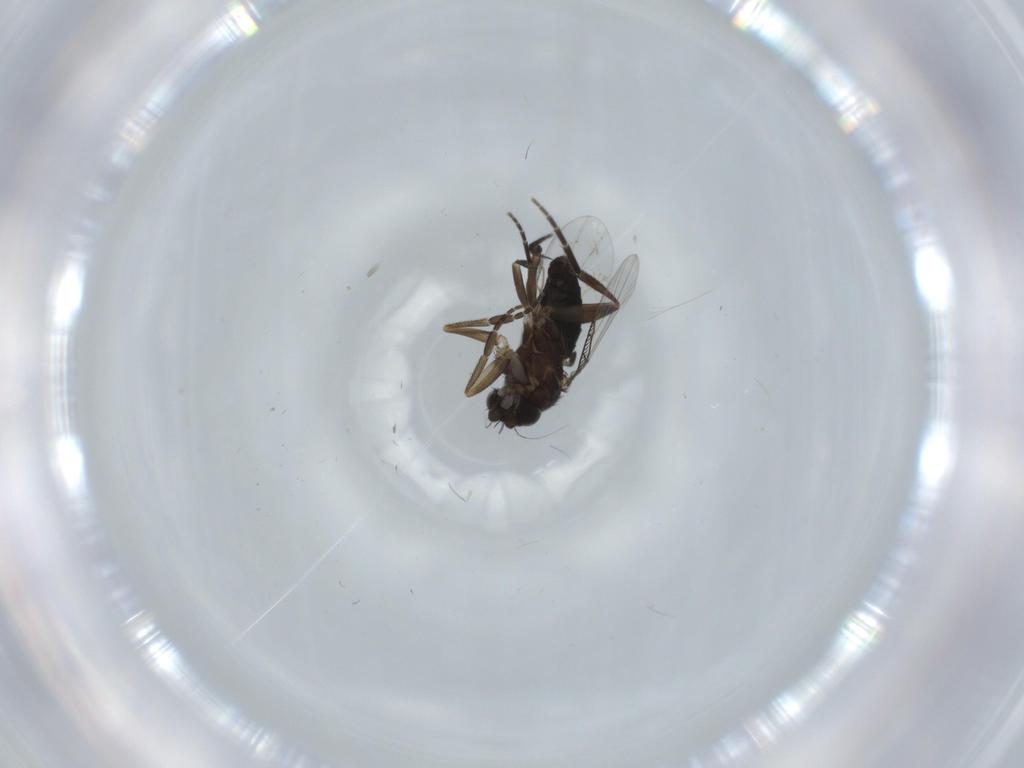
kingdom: Animalia
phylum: Arthropoda
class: Insecta
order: Diptera
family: Phoridae
